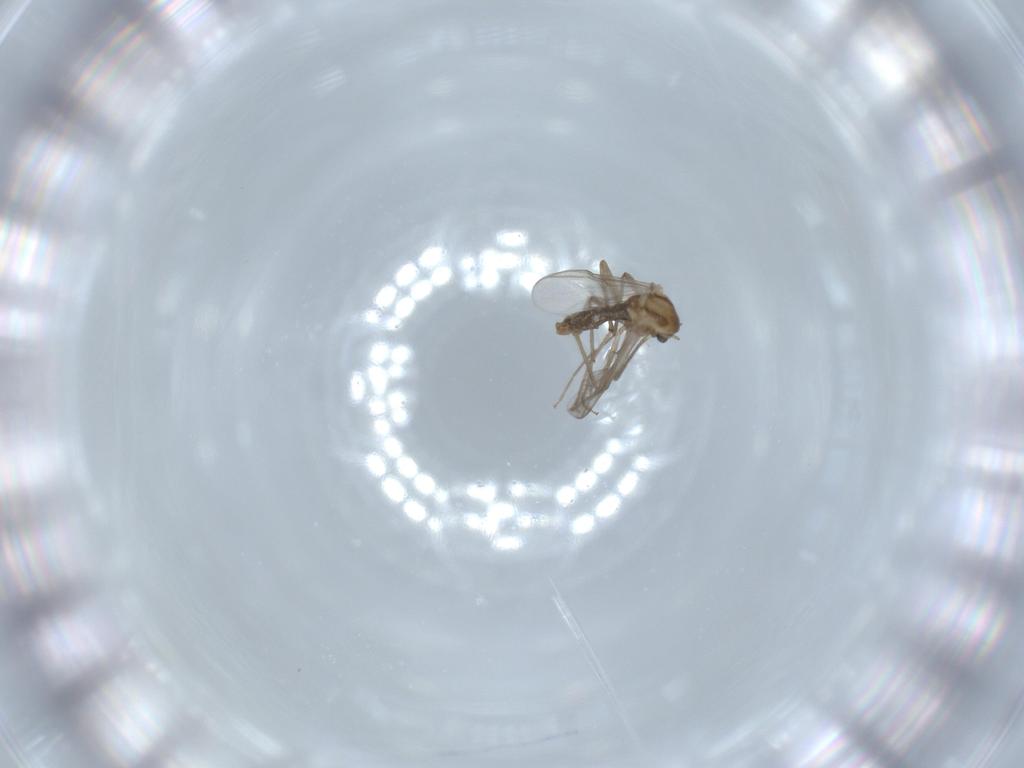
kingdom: Animalia
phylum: Arthropoda
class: Insecta
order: Diptera
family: Chironomidae
